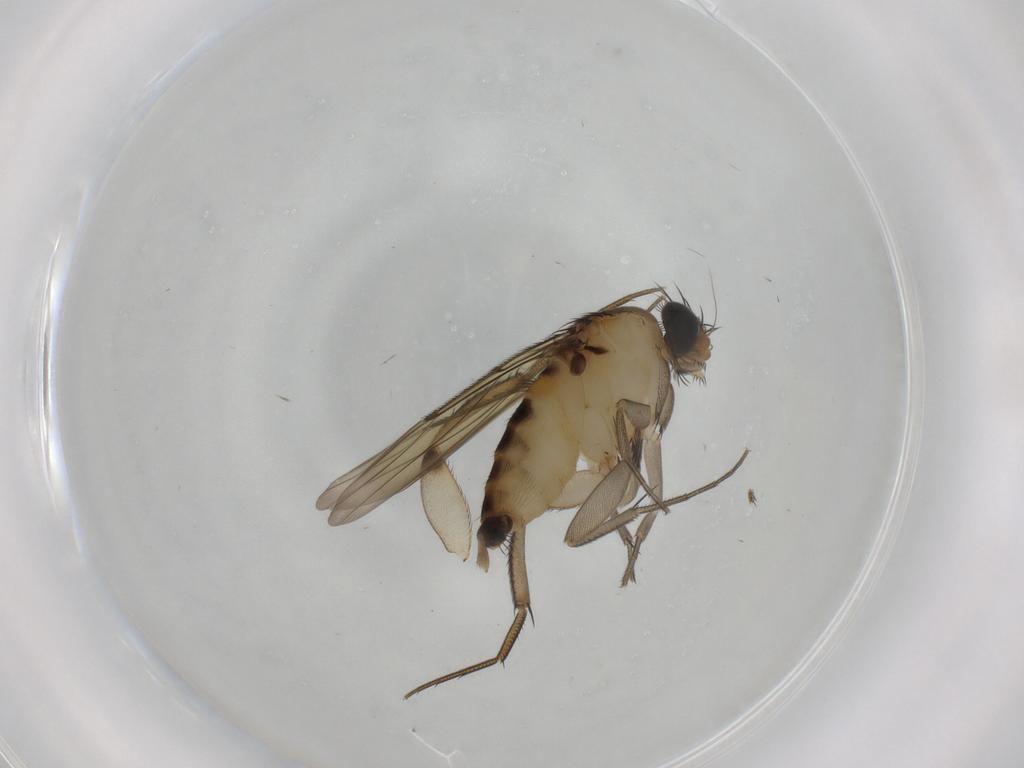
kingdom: Animalia
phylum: Arthropoda
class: Insecta
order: Diptera
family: Phoridae
